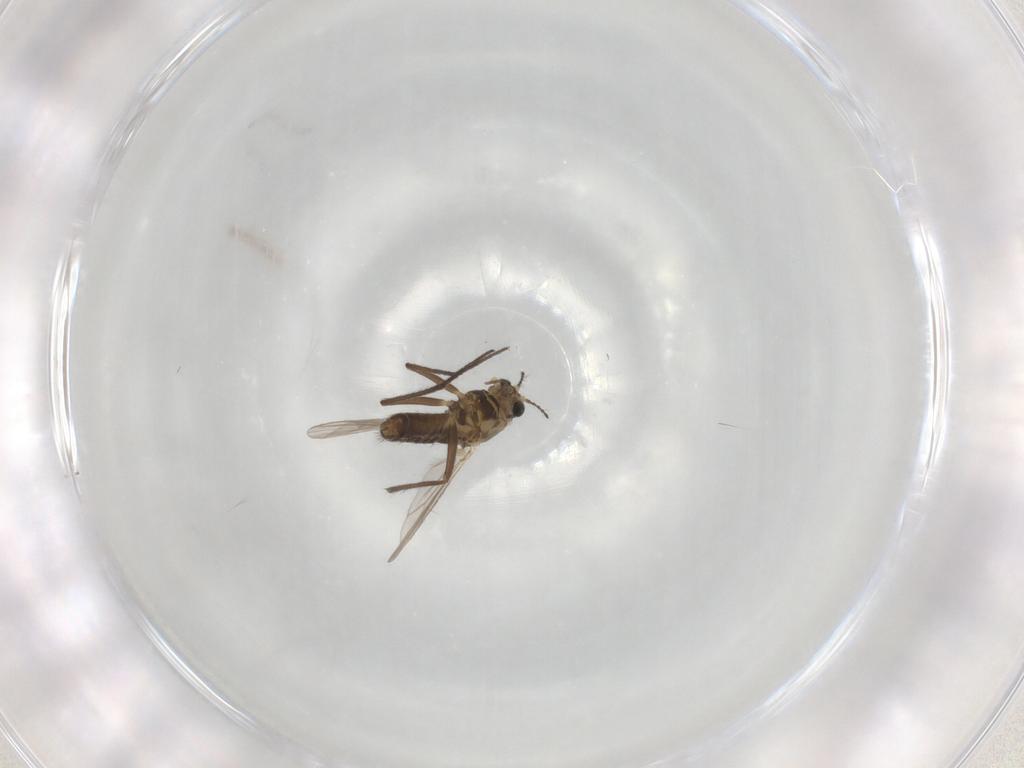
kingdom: Animalia
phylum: Arthropoda
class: Insecta
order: Diptera
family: Chironomidae
